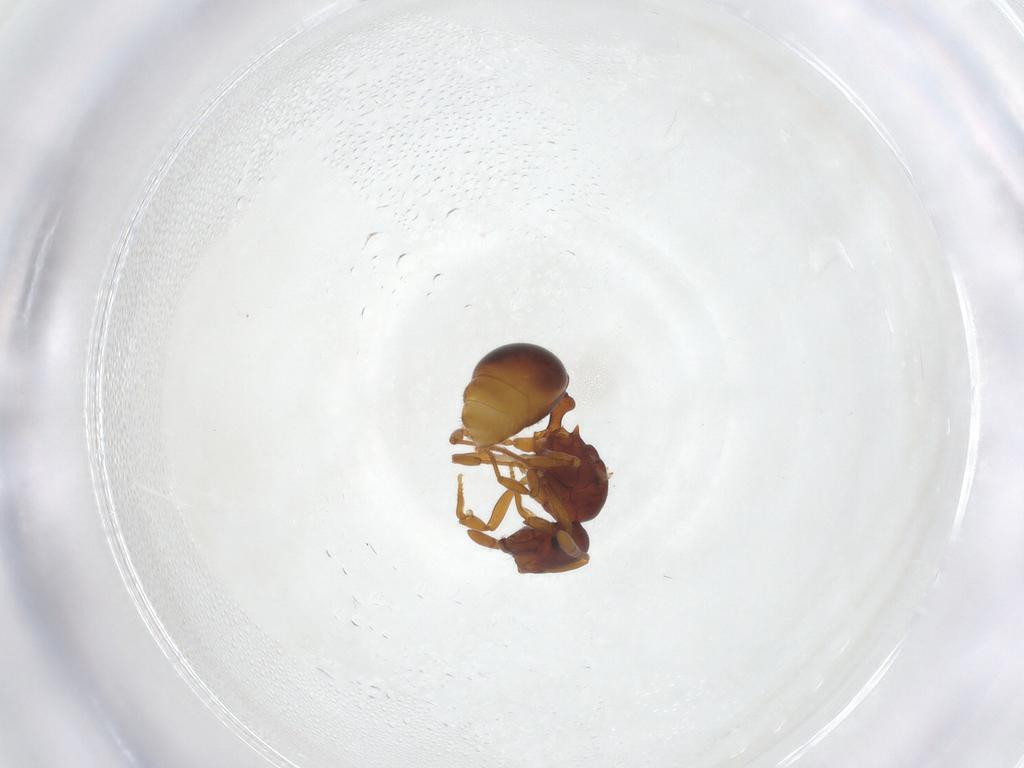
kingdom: Animalia
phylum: Arthropoda
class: Insecta
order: Hymenoptera
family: Formicidae
